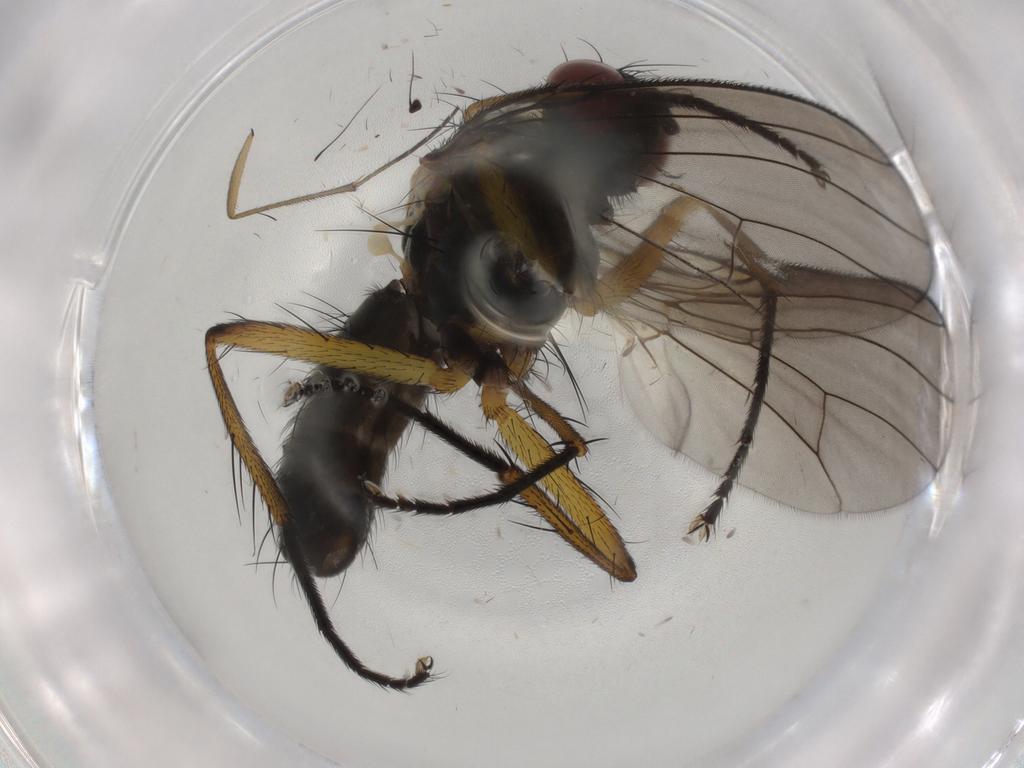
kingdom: Animalia
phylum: Arthropoda
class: Insecta
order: Diptera
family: Muscidae
